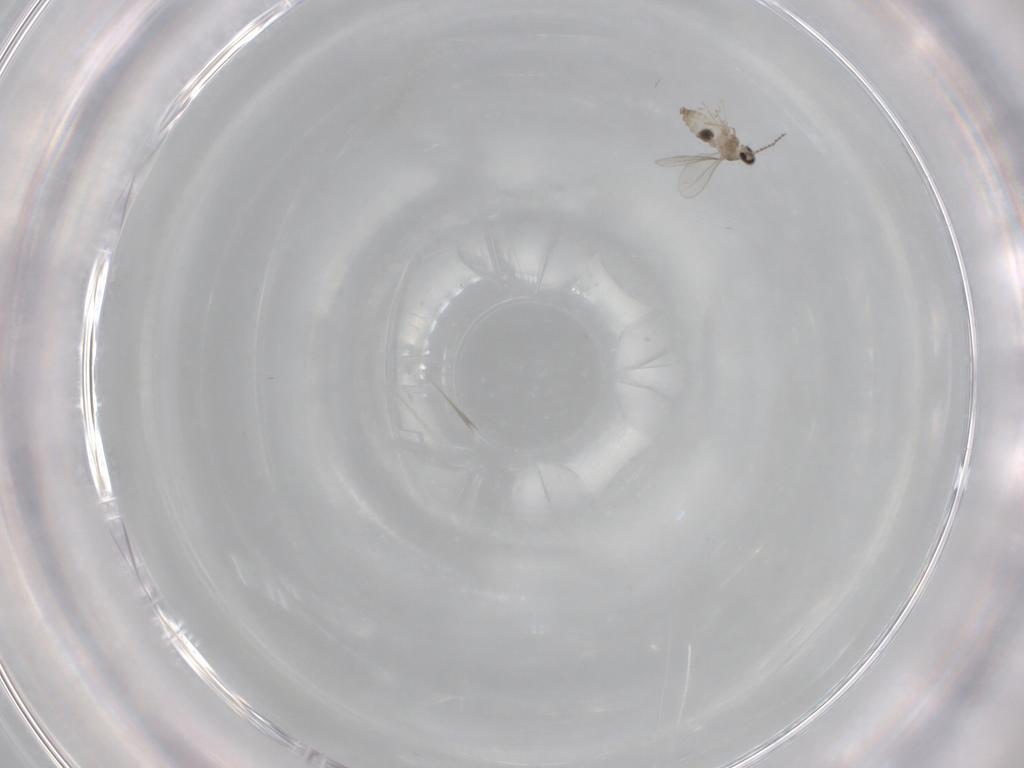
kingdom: Animalia
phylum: Arthropoda
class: Insecta
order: Diptera
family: Cecidomyiidae
